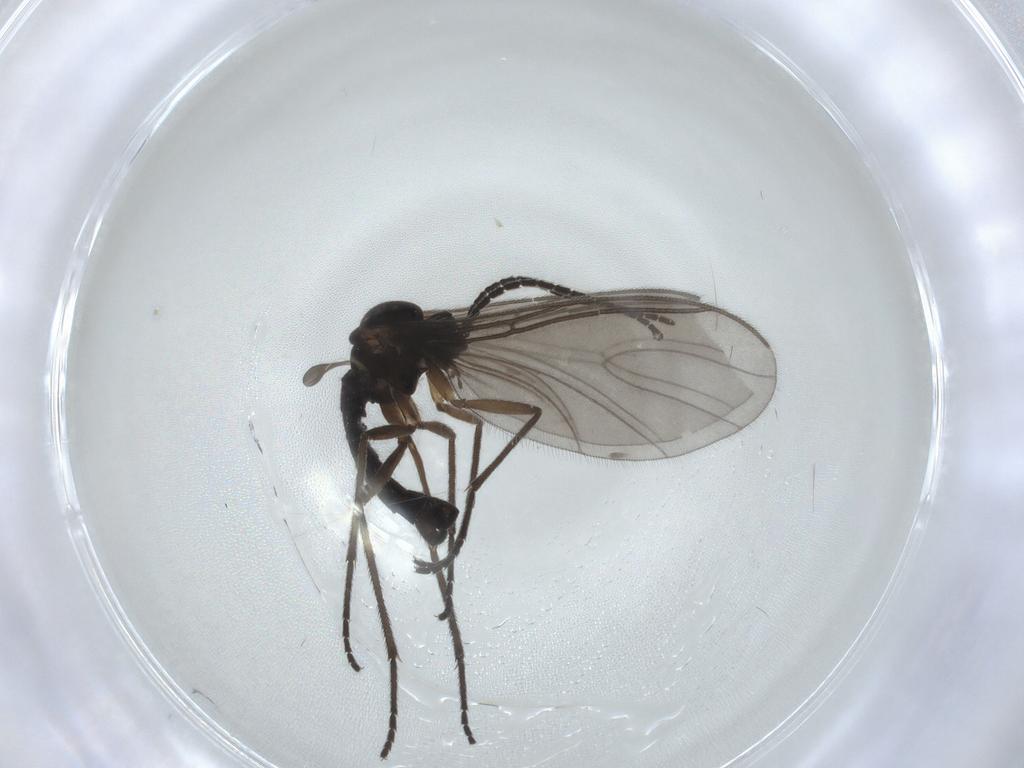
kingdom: Animalia
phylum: Arthropoda
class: Insecta
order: Diptera
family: Sciaridae
